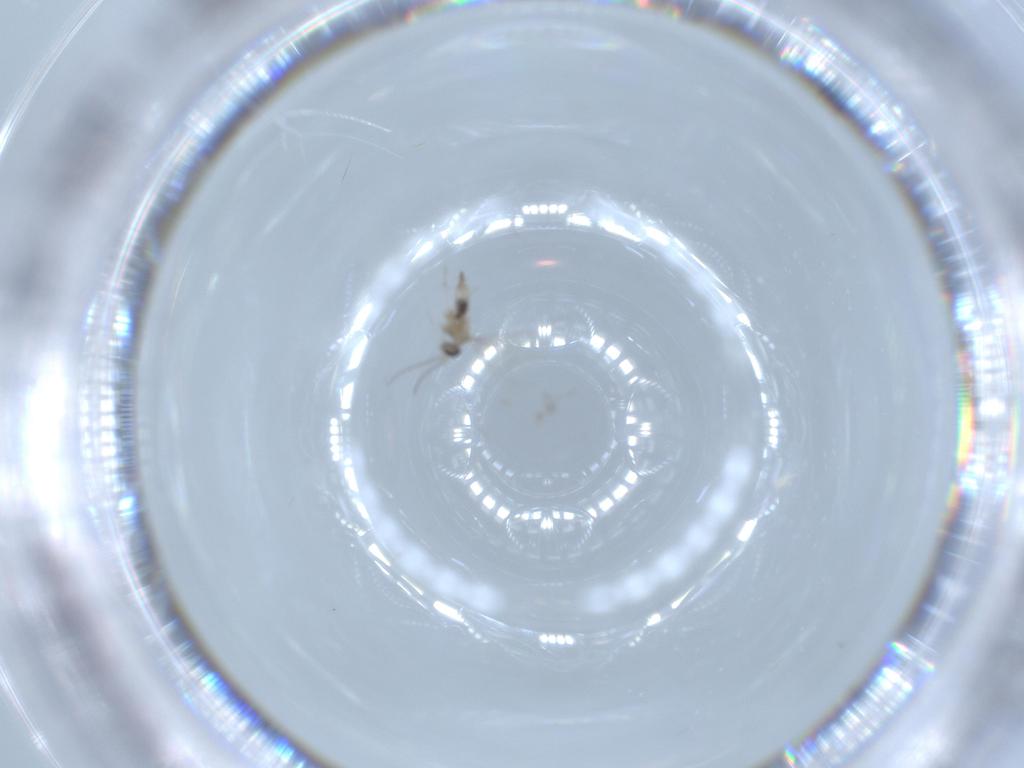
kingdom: Animalia
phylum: Arthropoda
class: Insecta
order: Diptera
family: Cecidomyiidae
